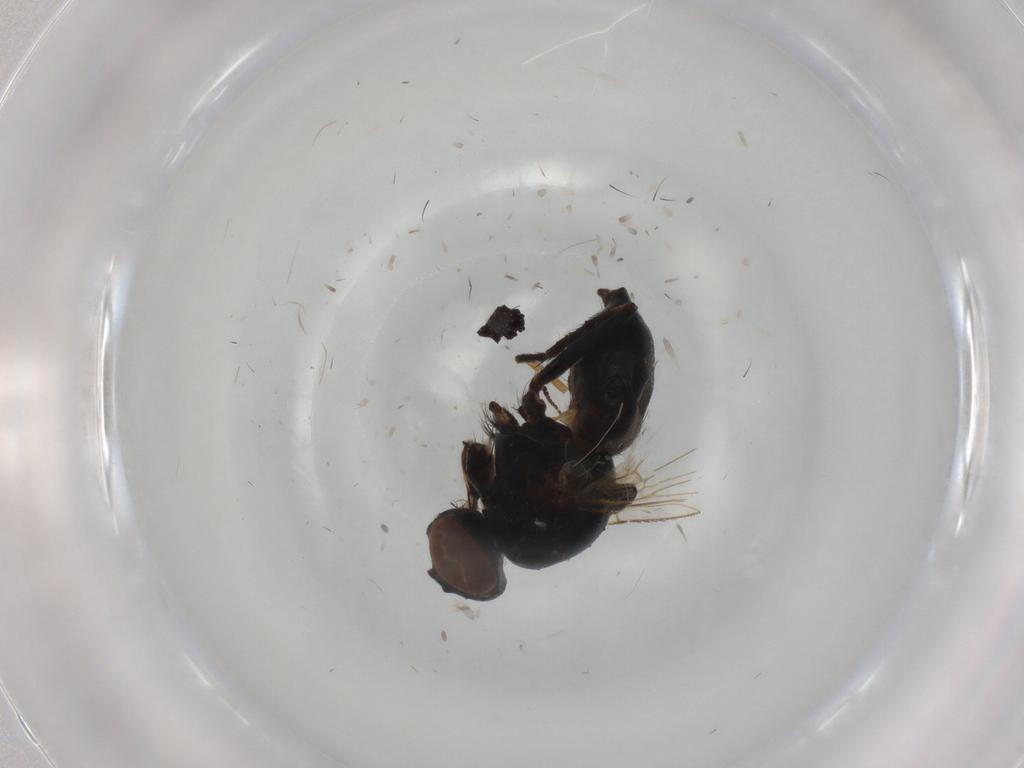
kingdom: Animalia
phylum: Arthropoda
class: Insecta
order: Diptera
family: Muscidae
